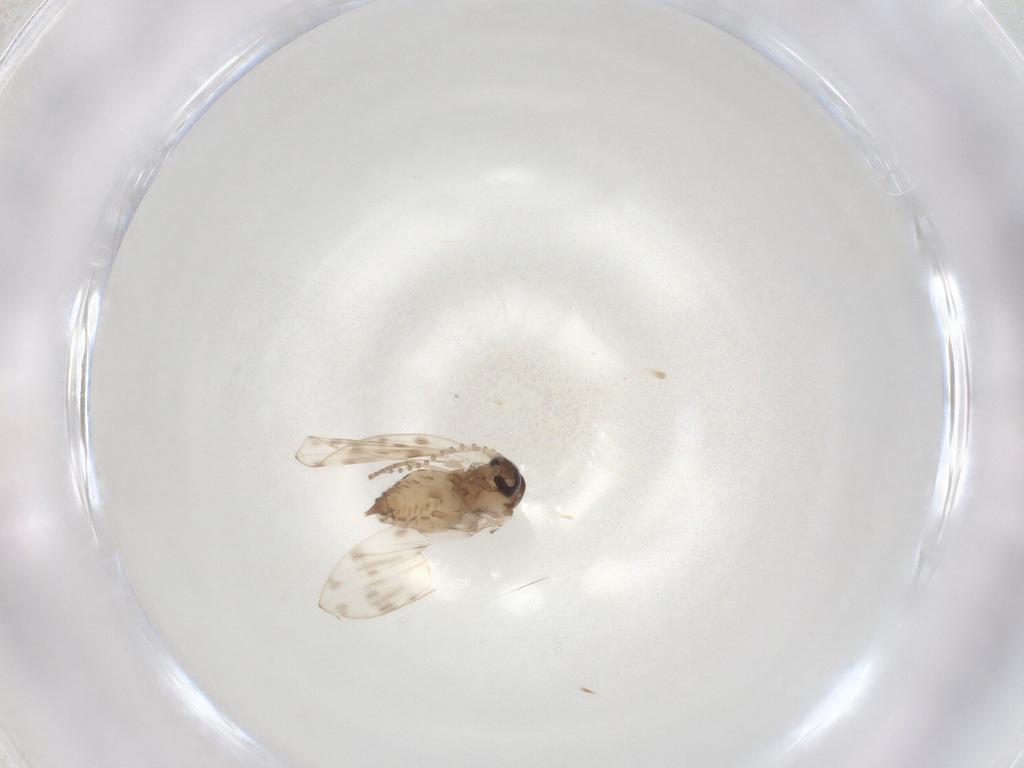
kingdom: Animalia
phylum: Arthropoda
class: Insecta
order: Diptera
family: Psychodidae
